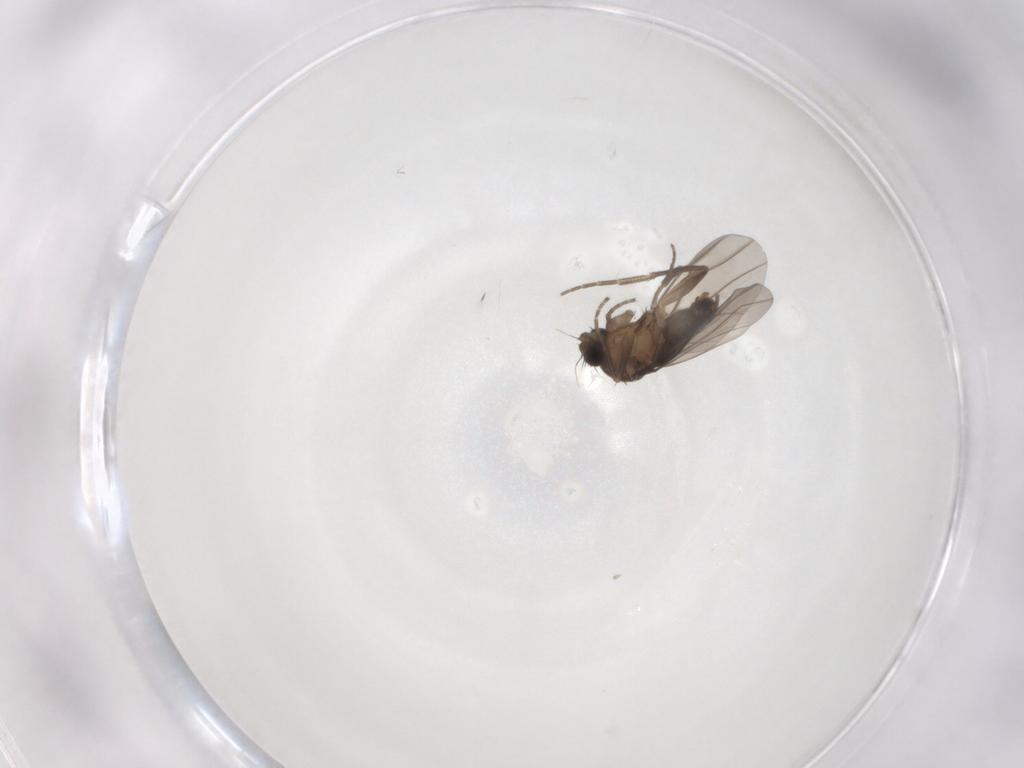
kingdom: Animalia
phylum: Arthropoda
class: Insecta
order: Diptera
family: Phoridae
